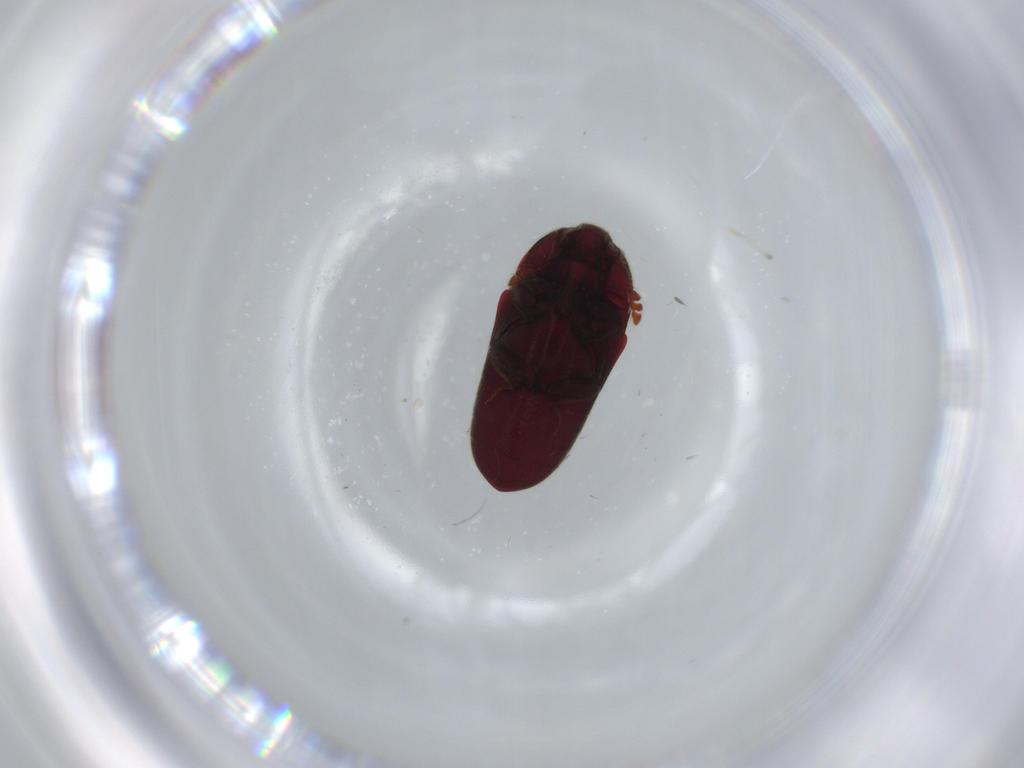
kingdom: Animalia
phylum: Arthropoda
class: Insecta
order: Coleoptera
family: Throscidae
